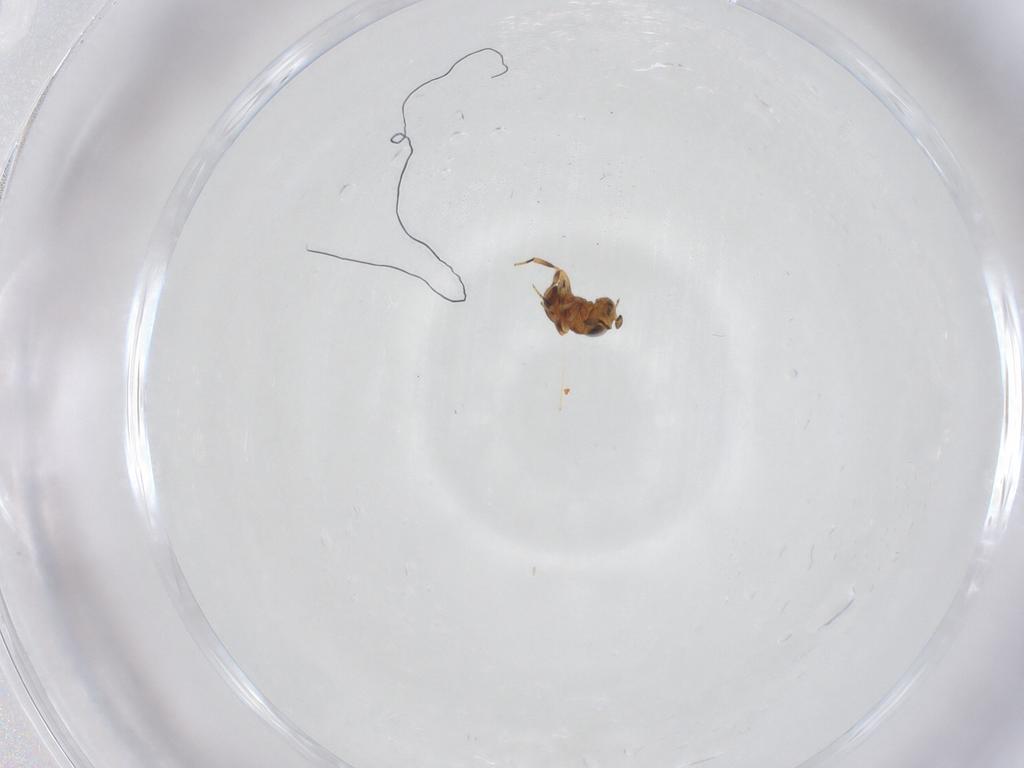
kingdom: Animalia
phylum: Arthropoda
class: Insecta
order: Hymenoptera
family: Scelionidae
